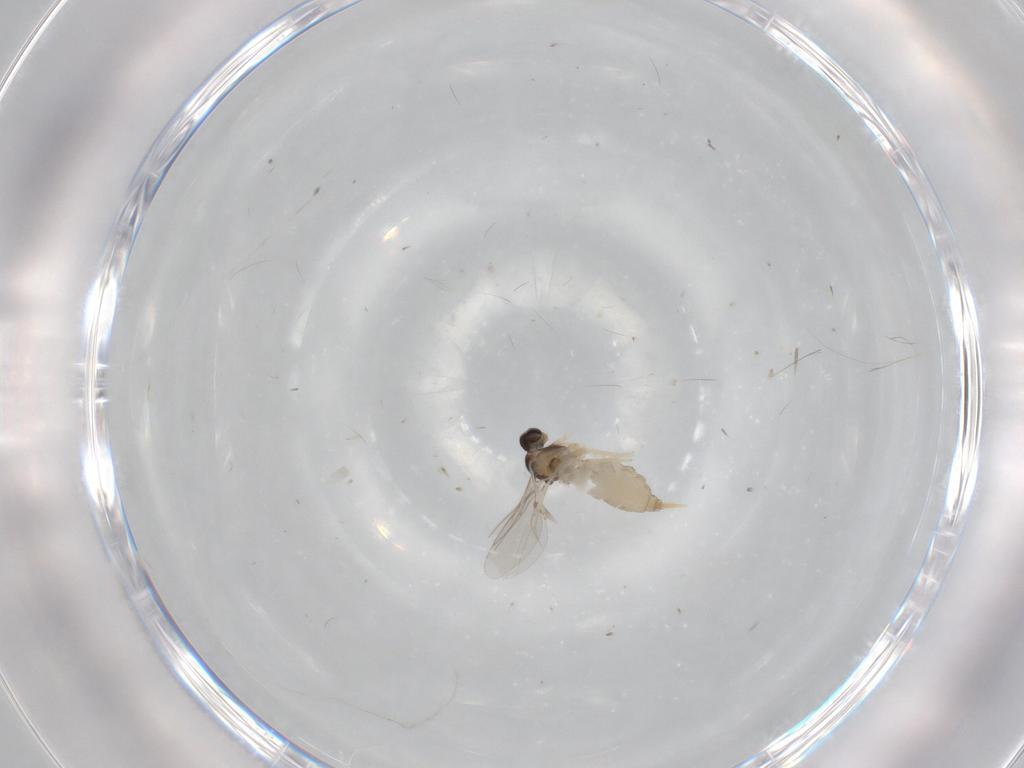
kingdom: Animalia
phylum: Arthropoda
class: Insecta
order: Diptera
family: Cecidomyiidae
